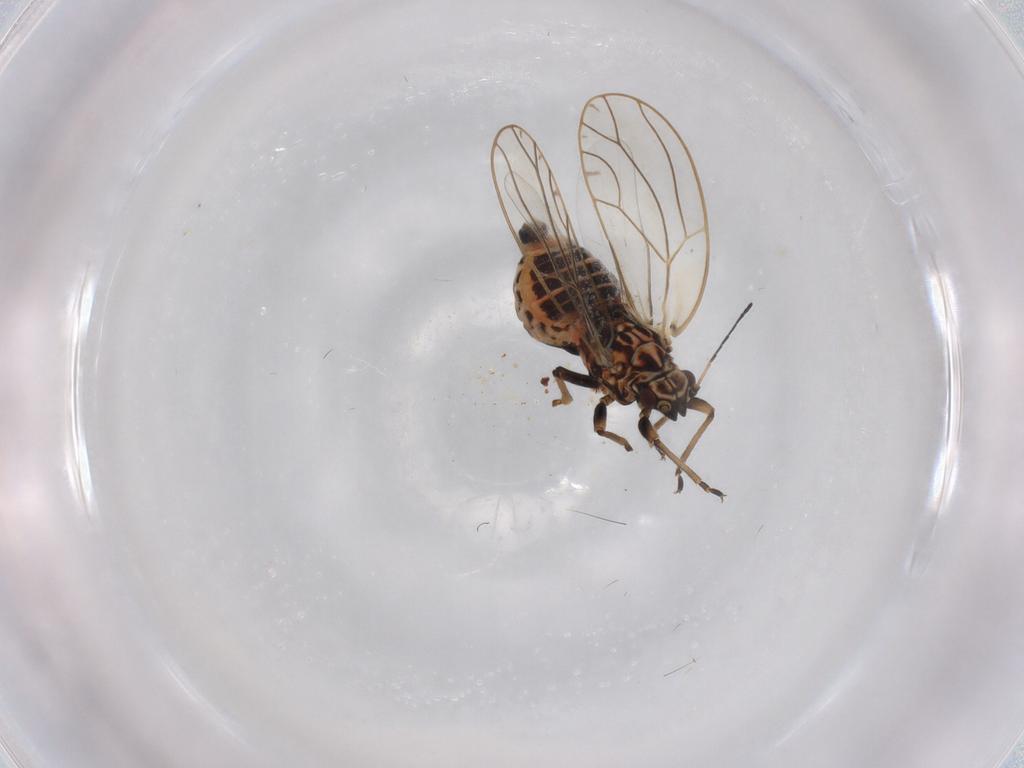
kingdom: Animalia
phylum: Arthropoda
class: Insecta
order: Hemiptera
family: Triozidae
